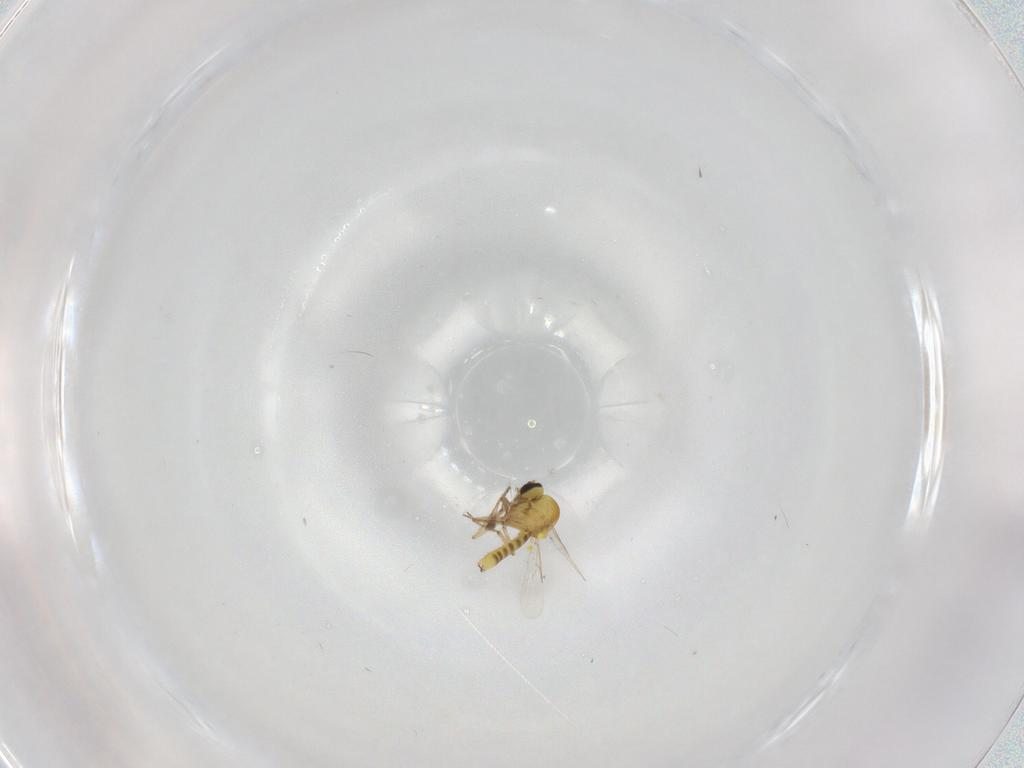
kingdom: Animalia
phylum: Arthropoda
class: Insecta
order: Diptera
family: Ceratopogonidae
